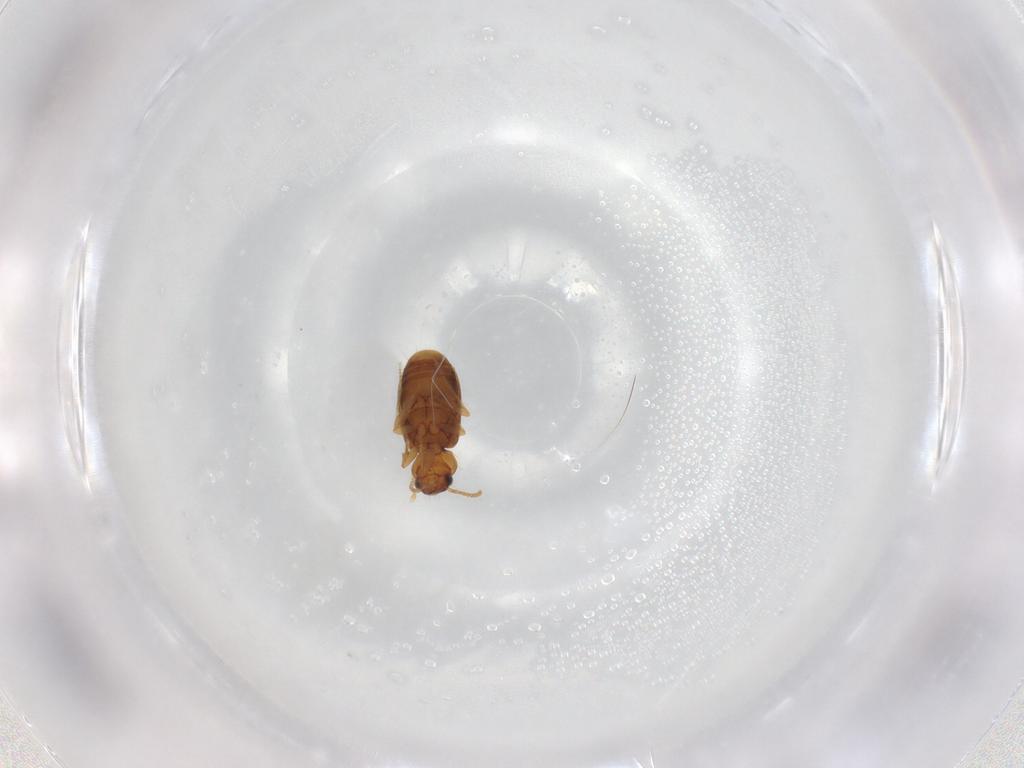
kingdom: Animalia
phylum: Arthropoda
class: Insecta
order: Coleoptera
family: Carabidae
